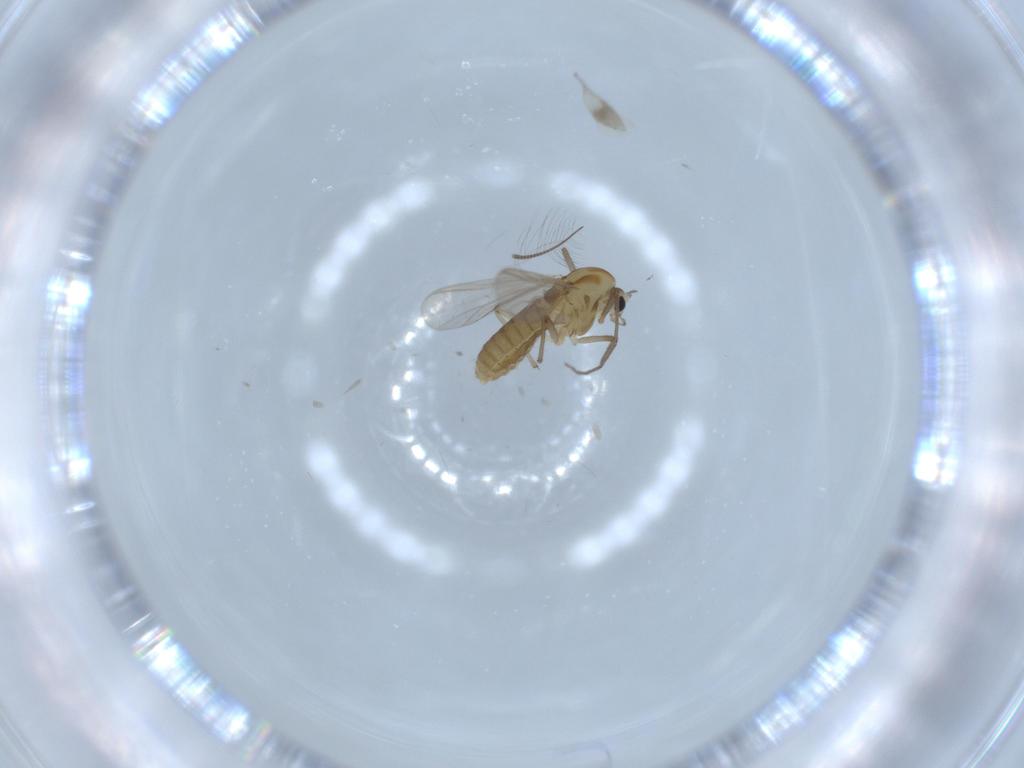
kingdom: Animalia
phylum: Arthropoda
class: Insecta
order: Diptera
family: Chironomidae
